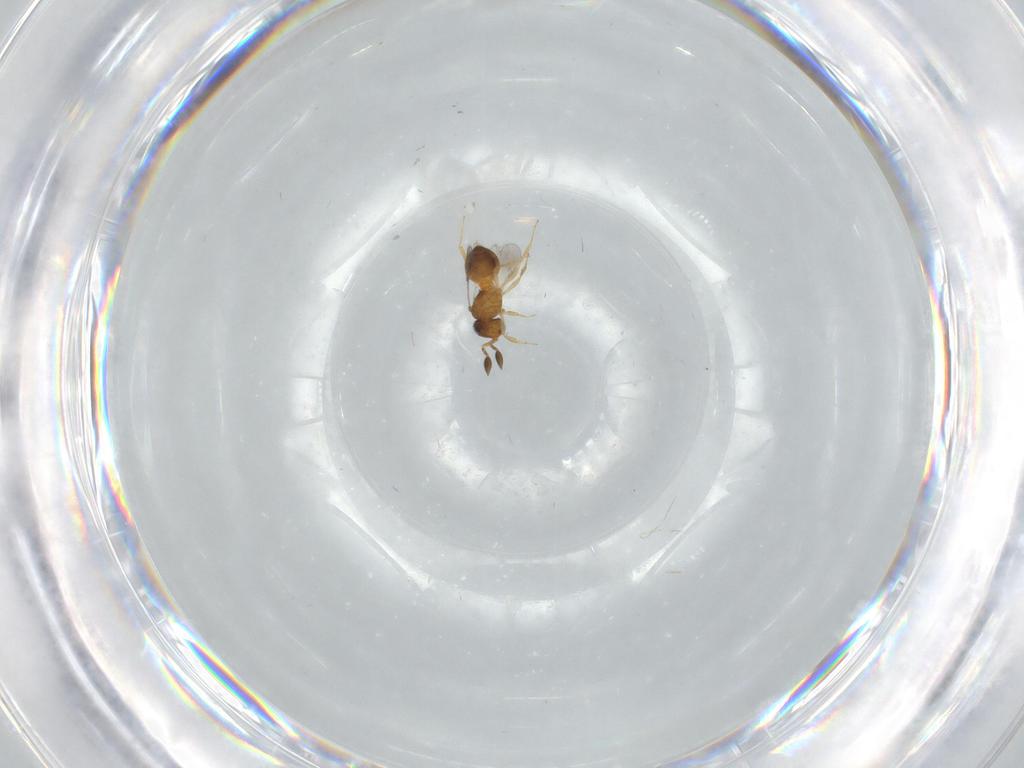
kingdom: Animalia
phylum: Arthropoda
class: Insecta
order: Hymenoptera
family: Scelionidae
